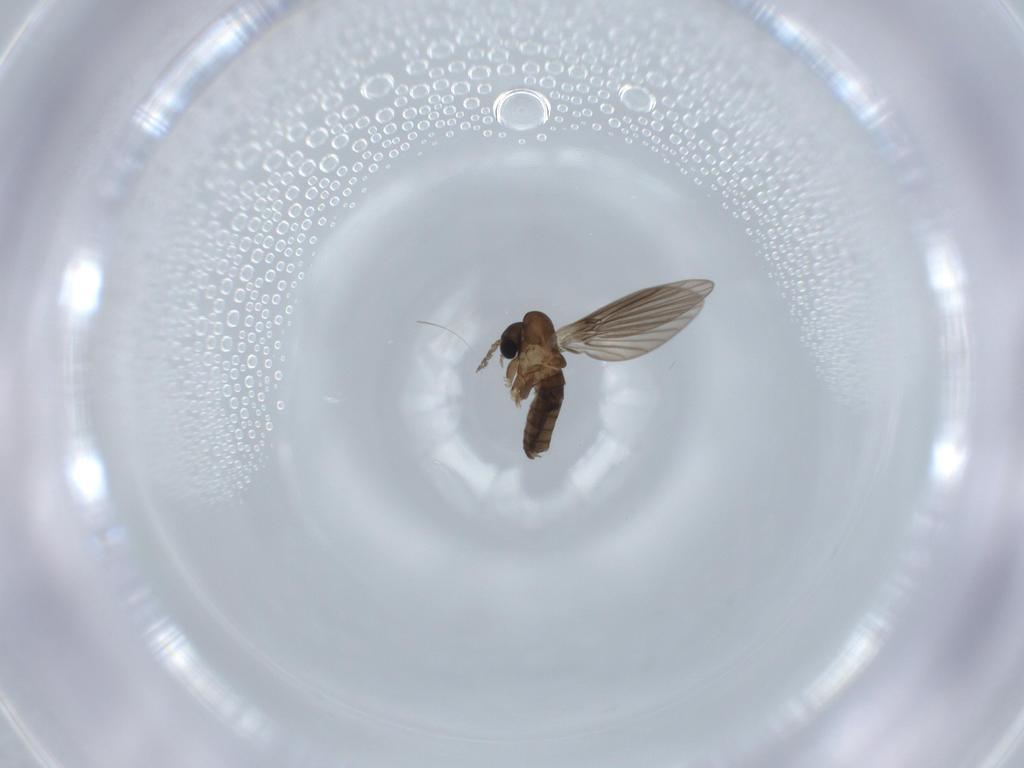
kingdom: Animalia
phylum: Arthropoda
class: Insecta
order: Diptera
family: Psychodidae
